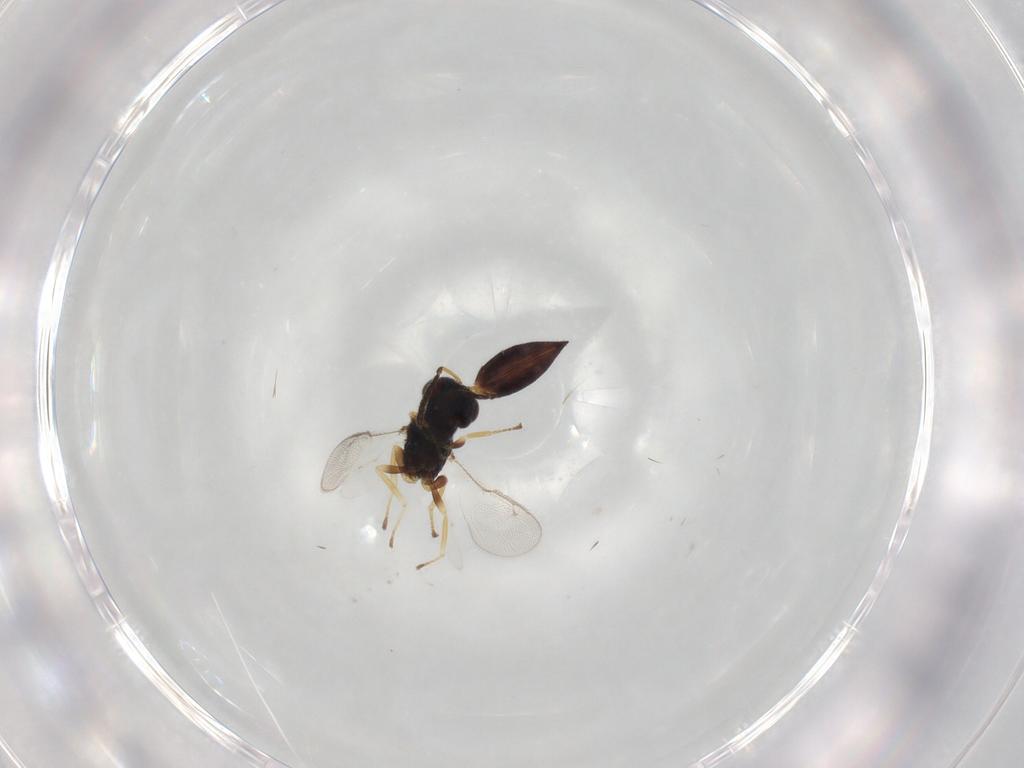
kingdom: Animalia
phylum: Arthropoda
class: Insecta
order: Hymenoptera
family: Pteromalidae
